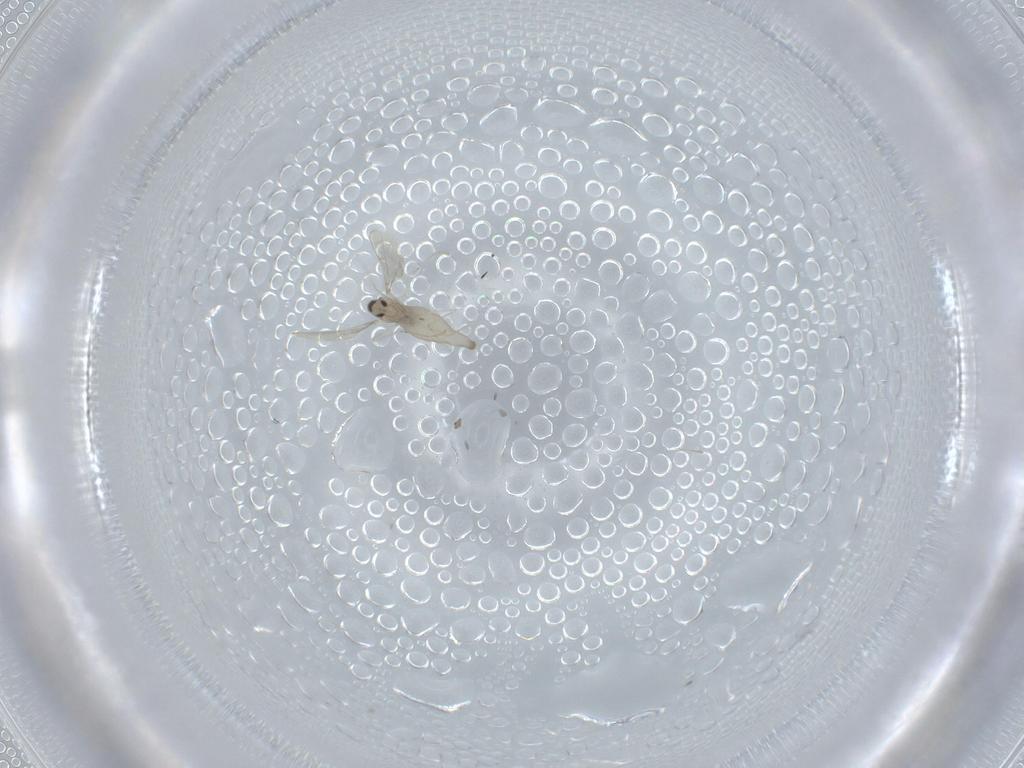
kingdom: Animalia
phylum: Arthropoda
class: Insecta
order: Diptera
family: Cecidomyiidae
